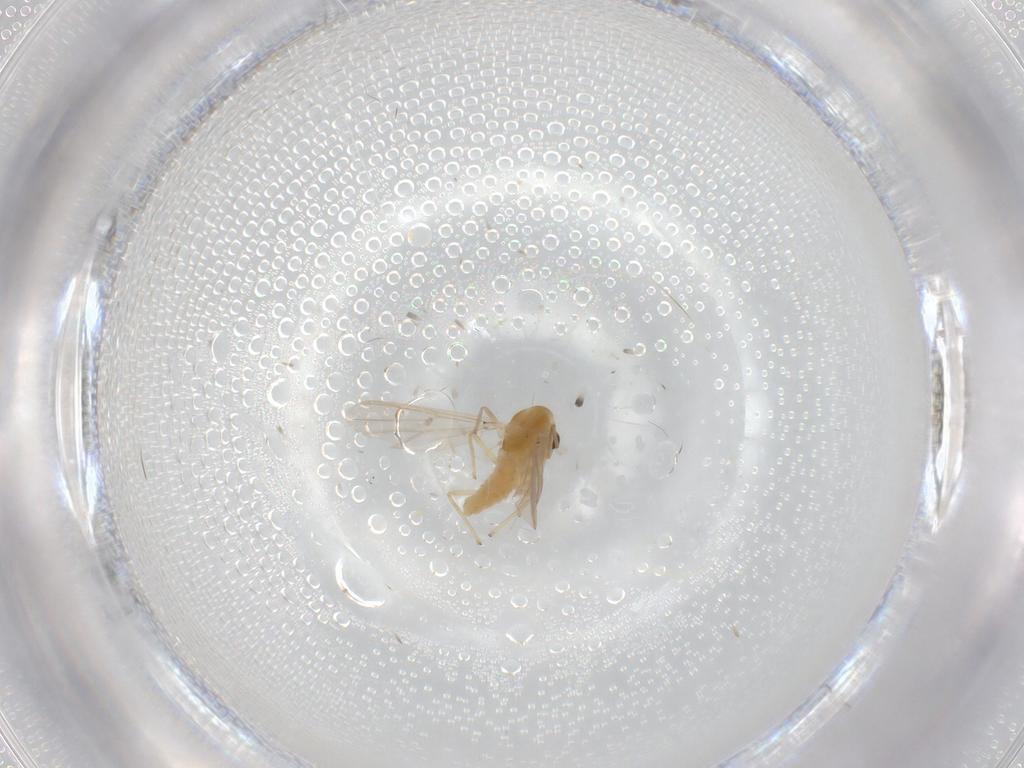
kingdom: Animalia
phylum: Arthropoda
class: Insecta
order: Diptera
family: Chironomidae
